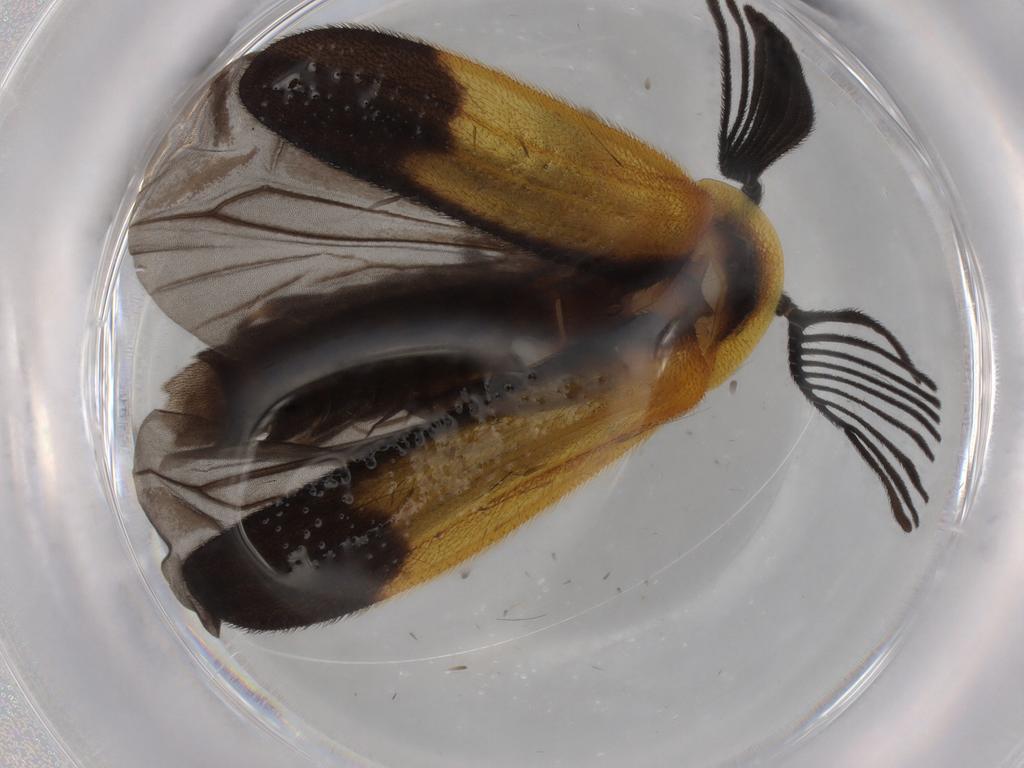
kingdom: Animalia
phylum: Arthropoda
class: Insecta
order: Coleoptera
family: Lampyridae
